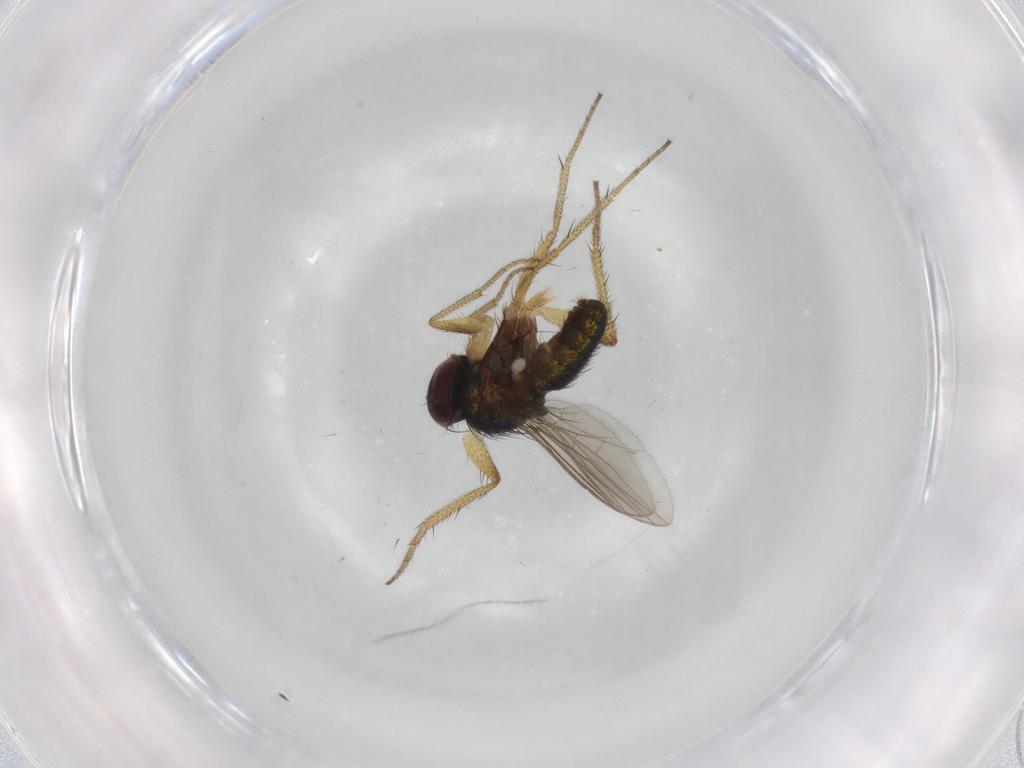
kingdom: Animalia
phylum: Arthropoda
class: Insecta
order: Diptera
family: Dolichopodidae
